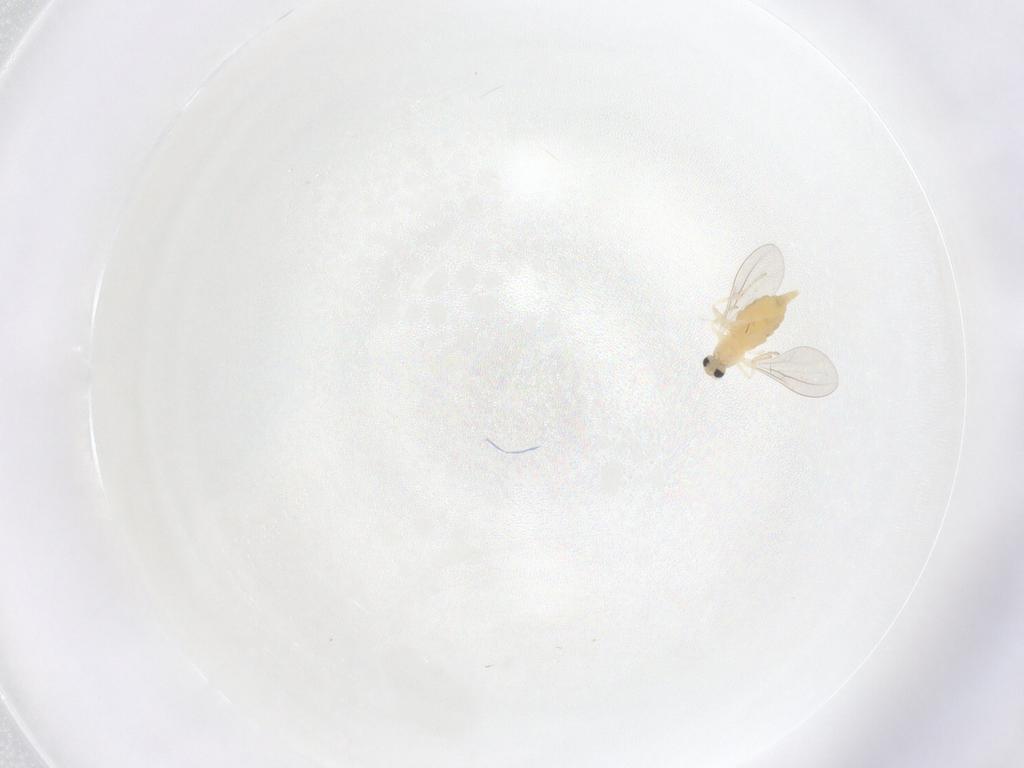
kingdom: Animalia
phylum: Arthropoda
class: Insecta
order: Diptera
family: Cecidomyiidae
